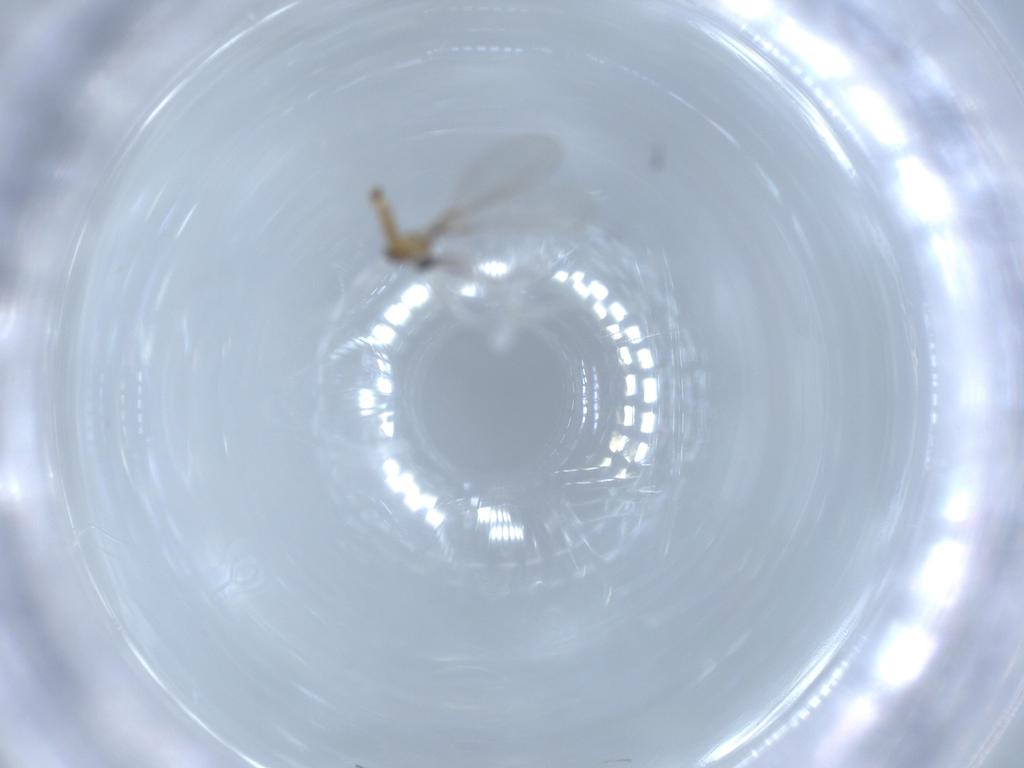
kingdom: Animalia
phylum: Arthropoda
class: Insecta
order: Diptera
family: Cecidomyiidae
